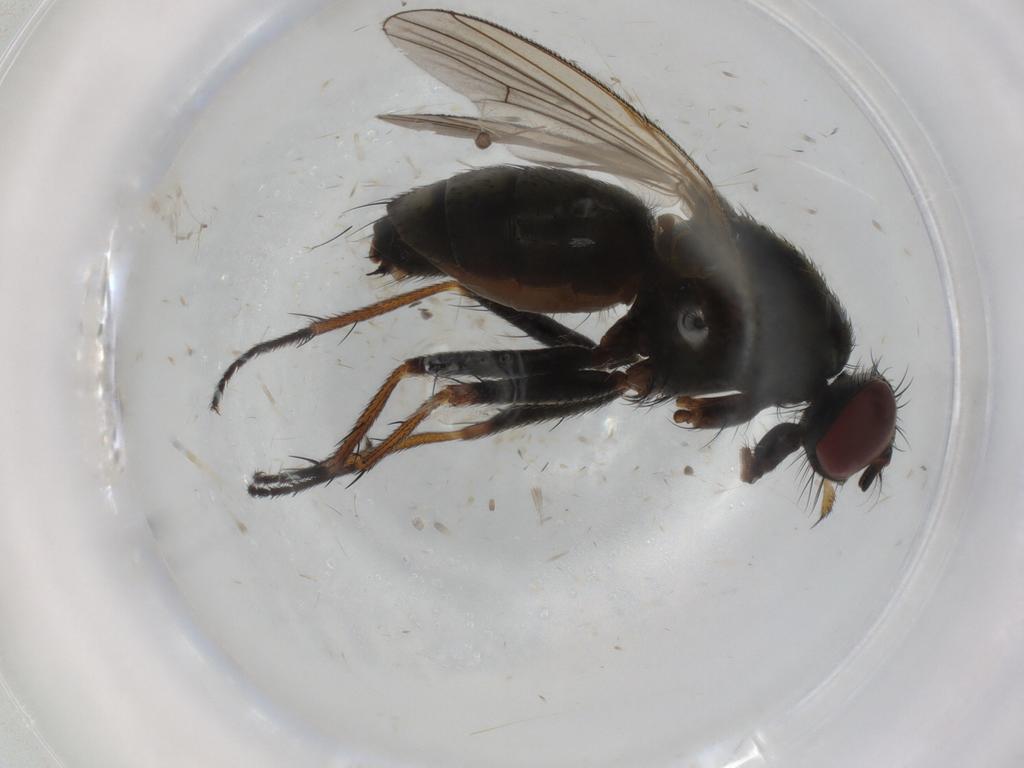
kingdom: Animalia
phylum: Arthropoda
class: Insecta
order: Diptera
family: Muscidae
